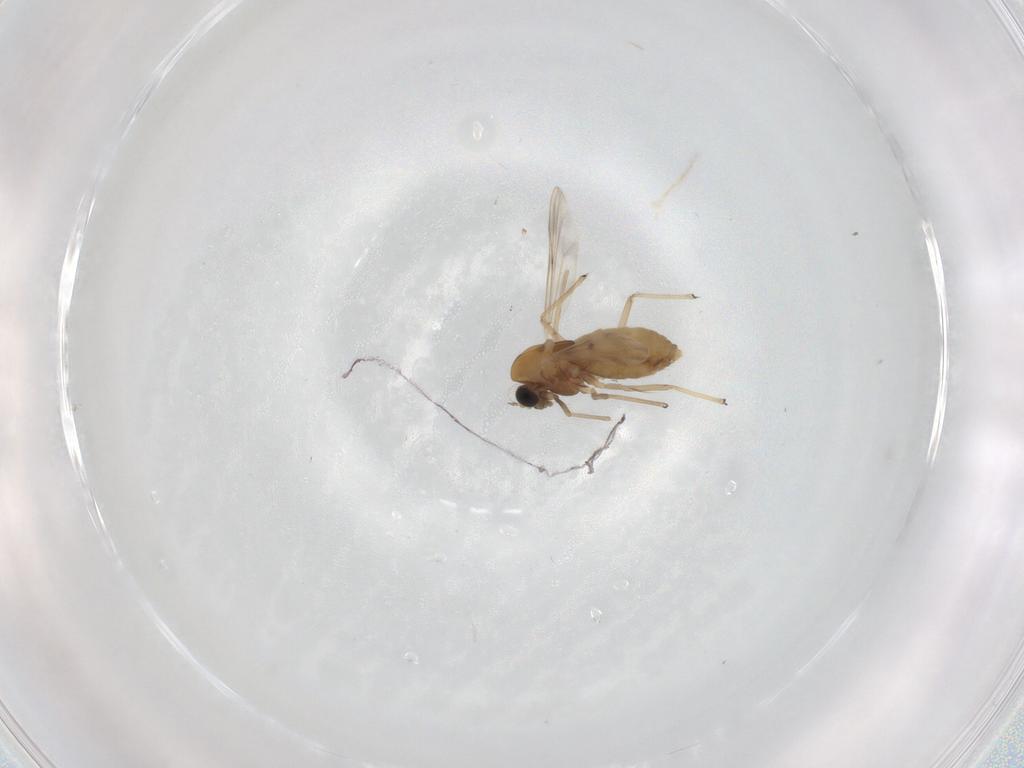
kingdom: Animalia
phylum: Arthropoda
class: Insecta
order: Diptera
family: Chironomidae
